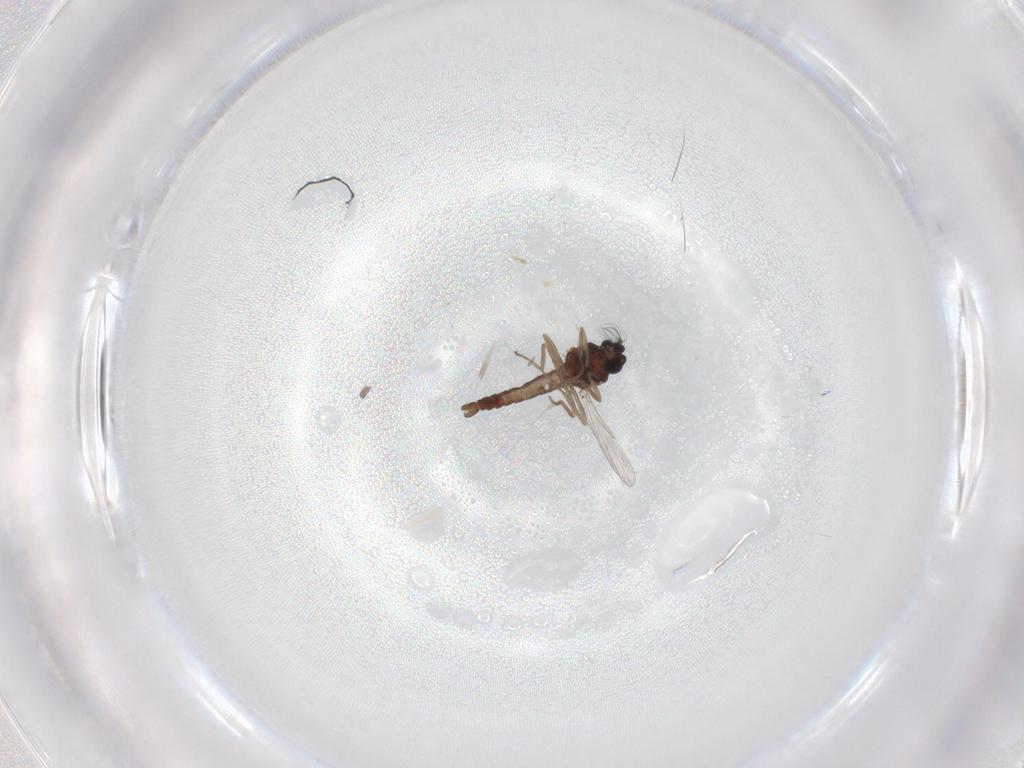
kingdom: Animalia
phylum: Arthropoda
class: Insecta
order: Diptera
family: Ceratopogonidae
